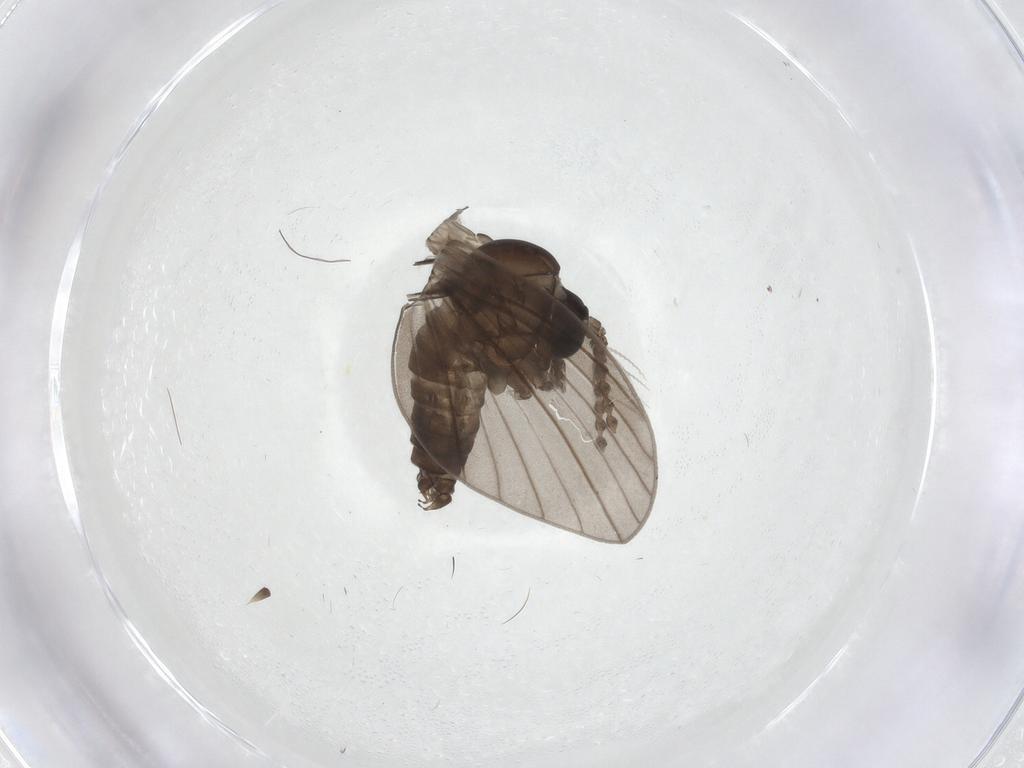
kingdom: Animalia
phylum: Arthropoda
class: Insecta
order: Diptera
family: Psychodidae
